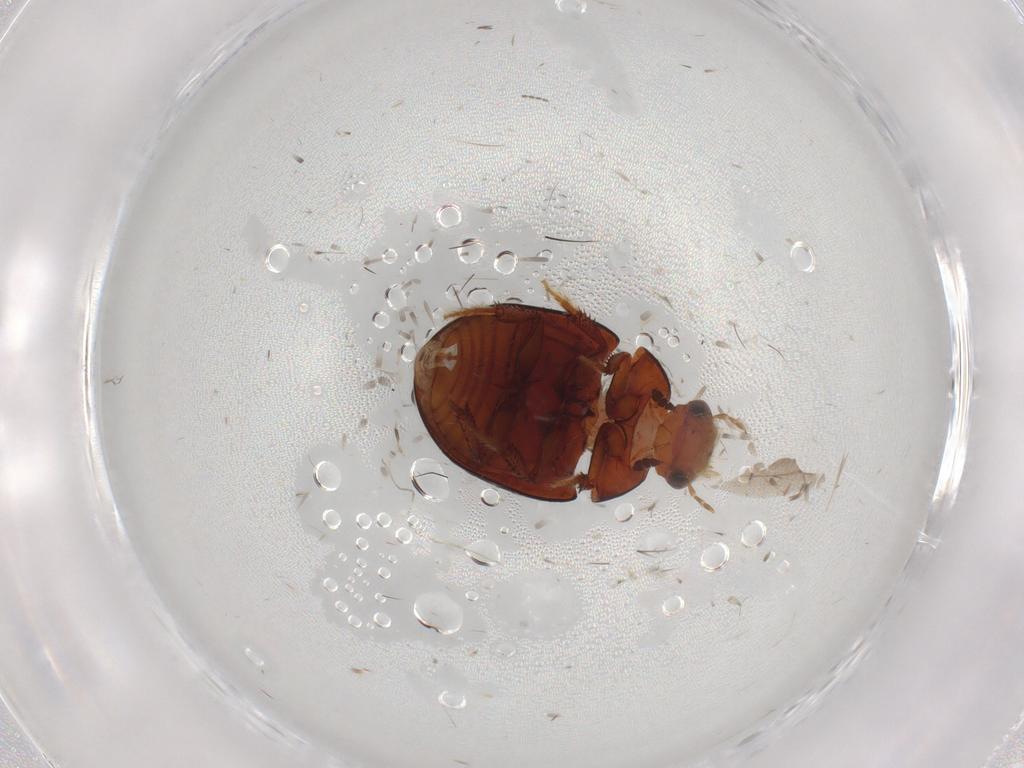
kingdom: Animalia
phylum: Arthropoda
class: Insecta
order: Coleoptera
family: Hydrophilidae
